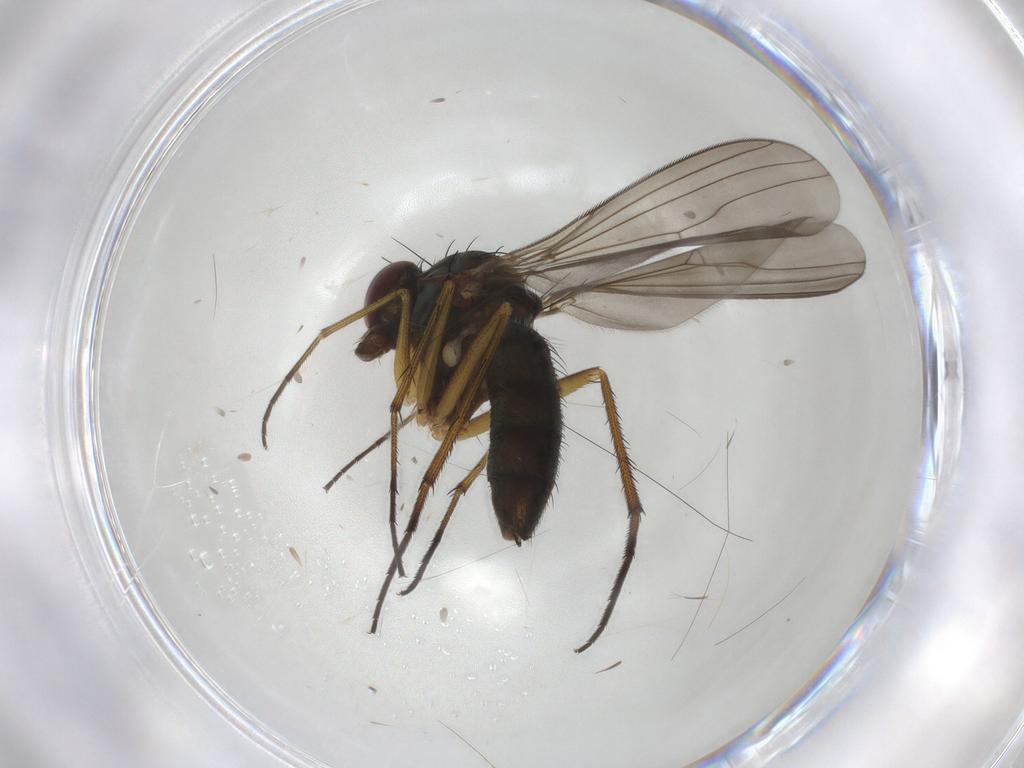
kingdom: Animalia
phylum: Arthropoda
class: Insecta
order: Diptera
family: Dolichopodidae
